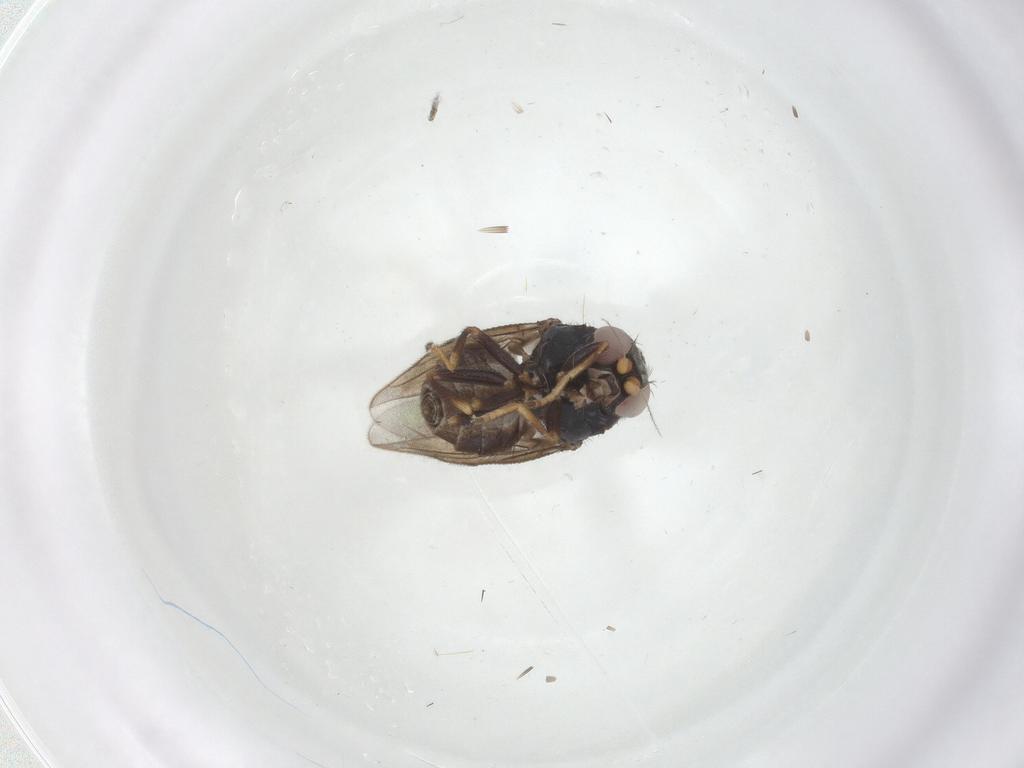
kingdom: Animalia
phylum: Arthropoda
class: Insecta
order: Diptera
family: Chloropidae
